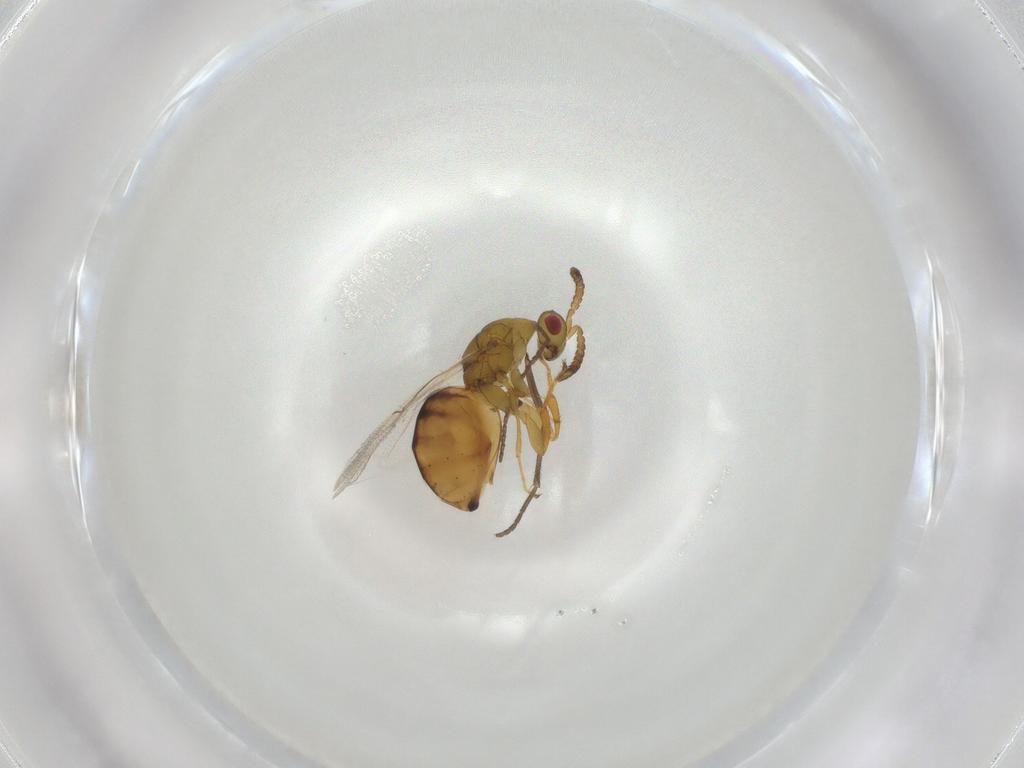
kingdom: Animalia
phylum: Arthropoda
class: Insecta
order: Hymenoptera
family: Epichrysomallidae
